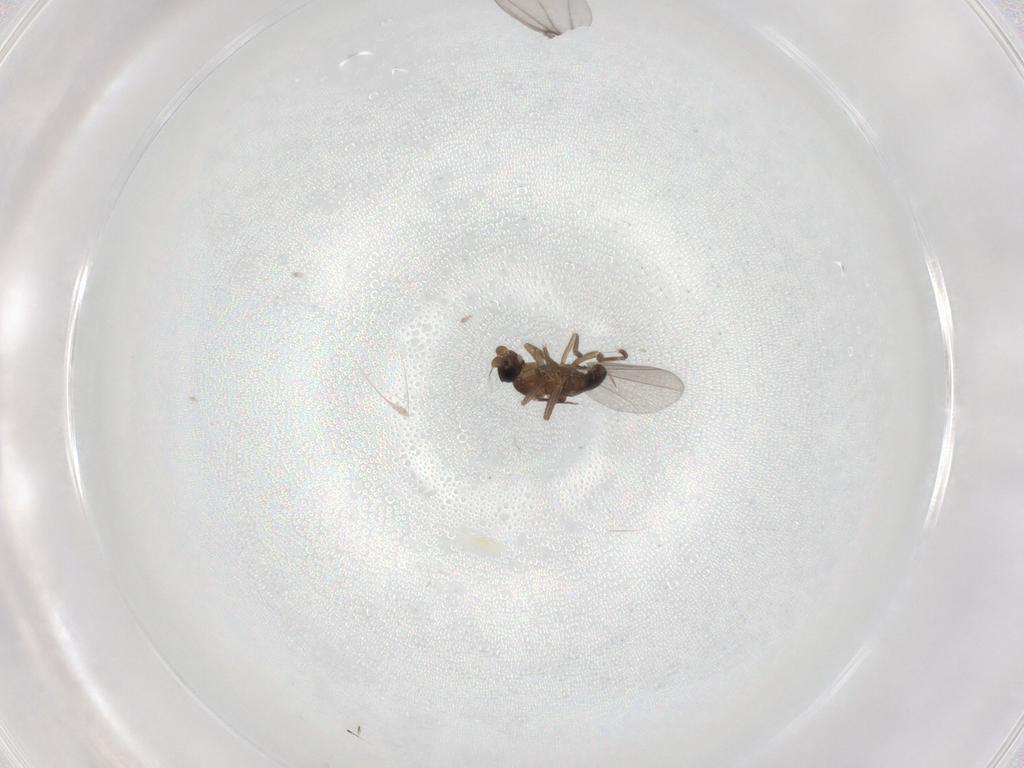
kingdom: Animalia
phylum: Arthropoda
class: Insecta
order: Diptera
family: Phoridae
